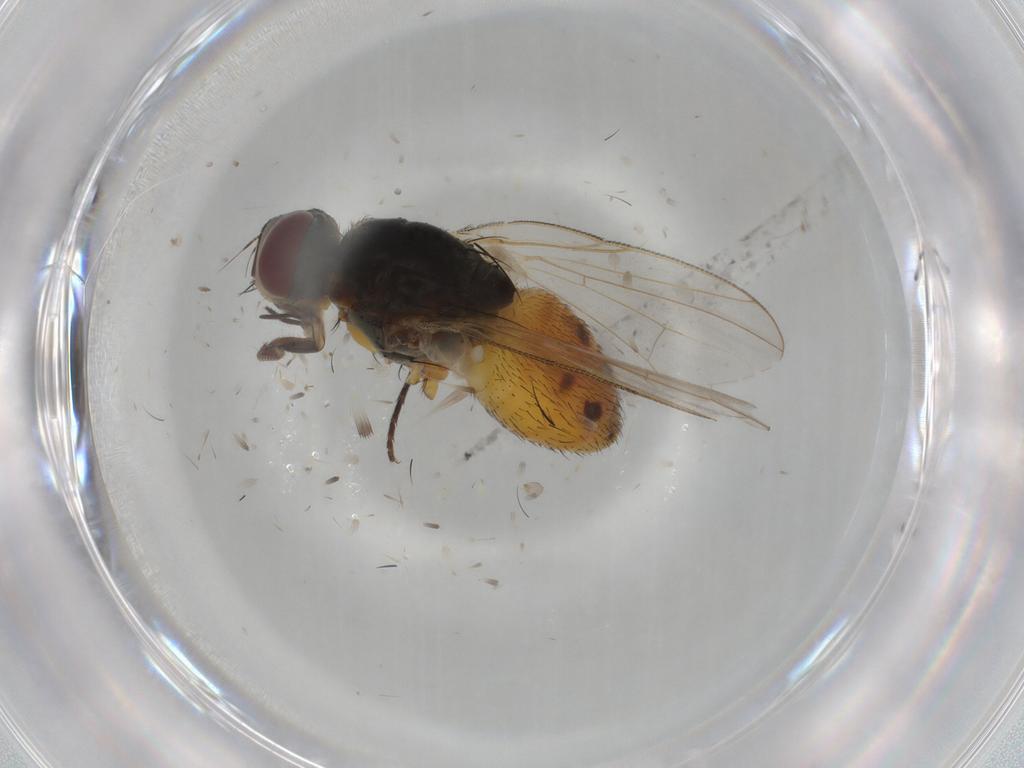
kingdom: Animalia
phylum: Arthropoda
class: Insecta
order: Diptera
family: Muscidae
